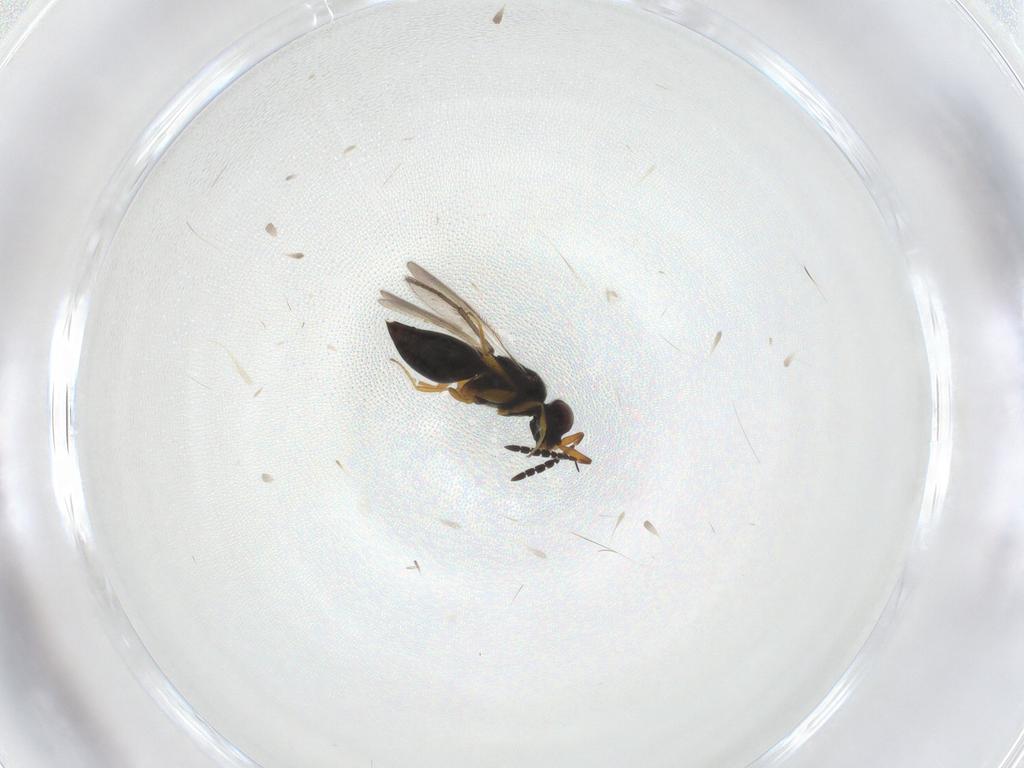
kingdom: Animalia
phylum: Arthropoda
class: Insecta
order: Hymenoptera
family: Ceraphronidae
